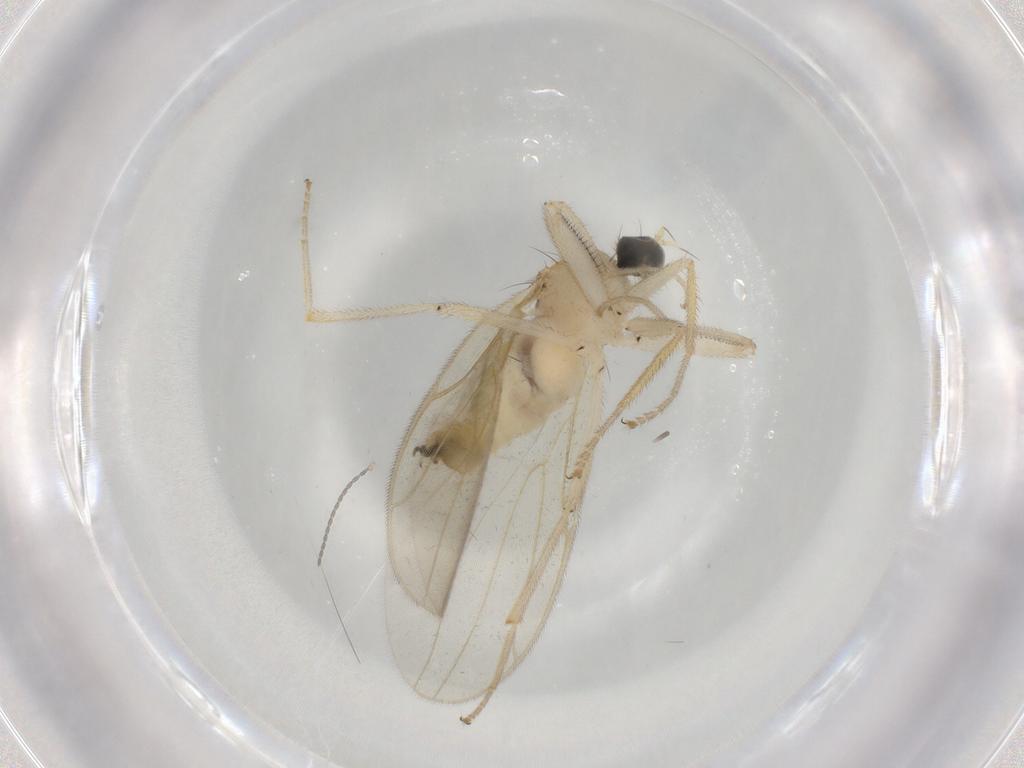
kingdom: Animalia
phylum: Arthropoda
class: Insecta
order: Diptera
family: Hybotidae
